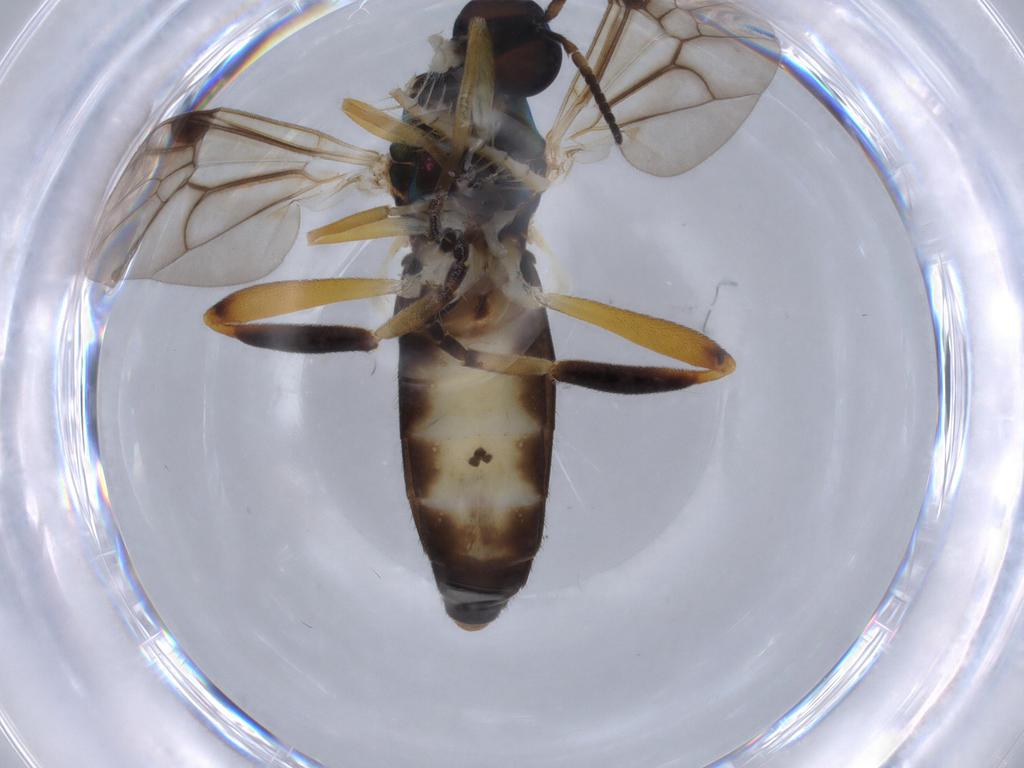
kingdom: Animalia
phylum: Arthropoda
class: Insecta
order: Diptera
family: Stratiomyidae
